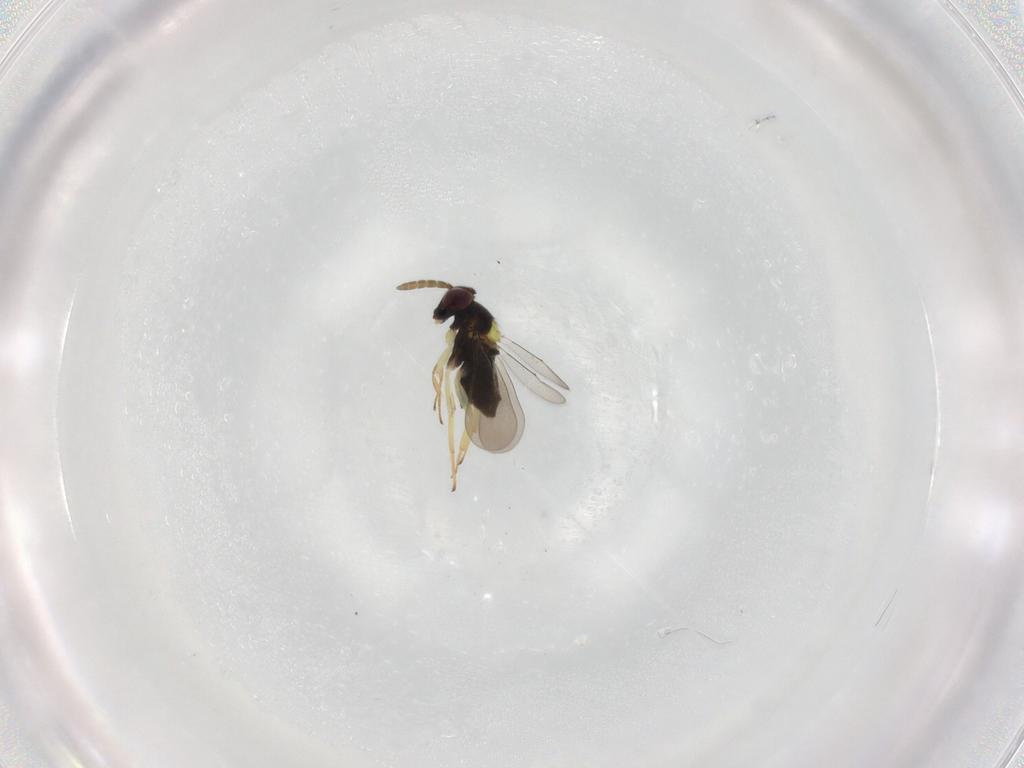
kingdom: Animalia
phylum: Arthropoda
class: Insecta
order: Hymenoptera
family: Aphelinidae
